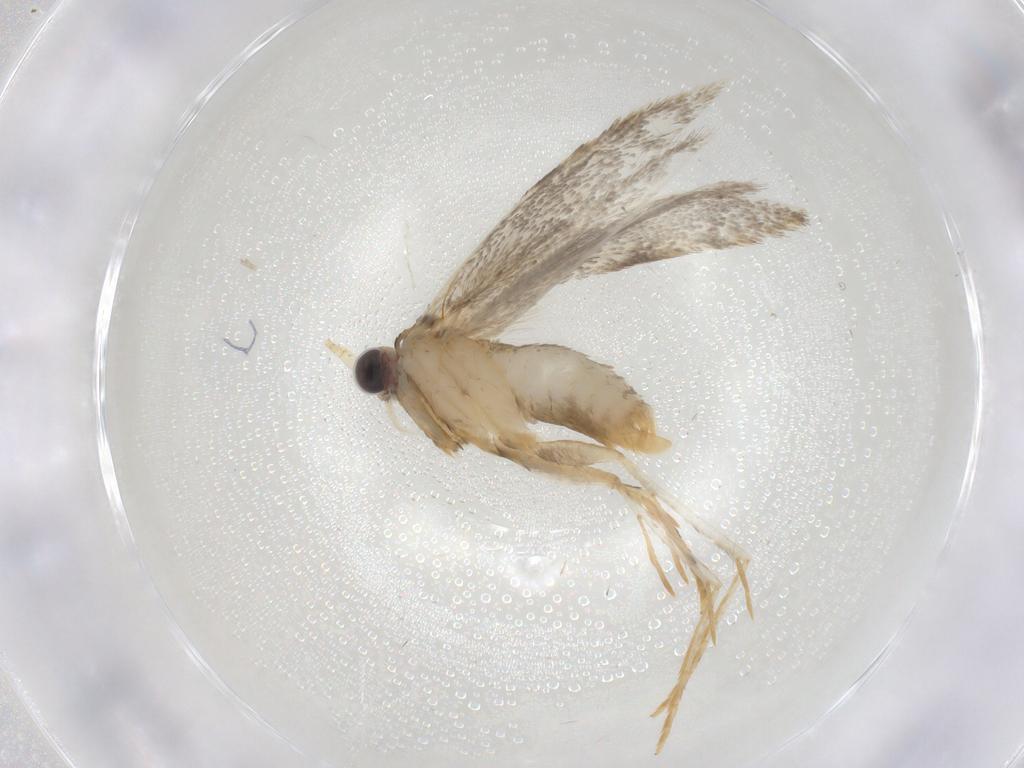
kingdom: Animalia
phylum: Arthropoda
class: Insecta
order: Lepidoptera
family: Tineidae
